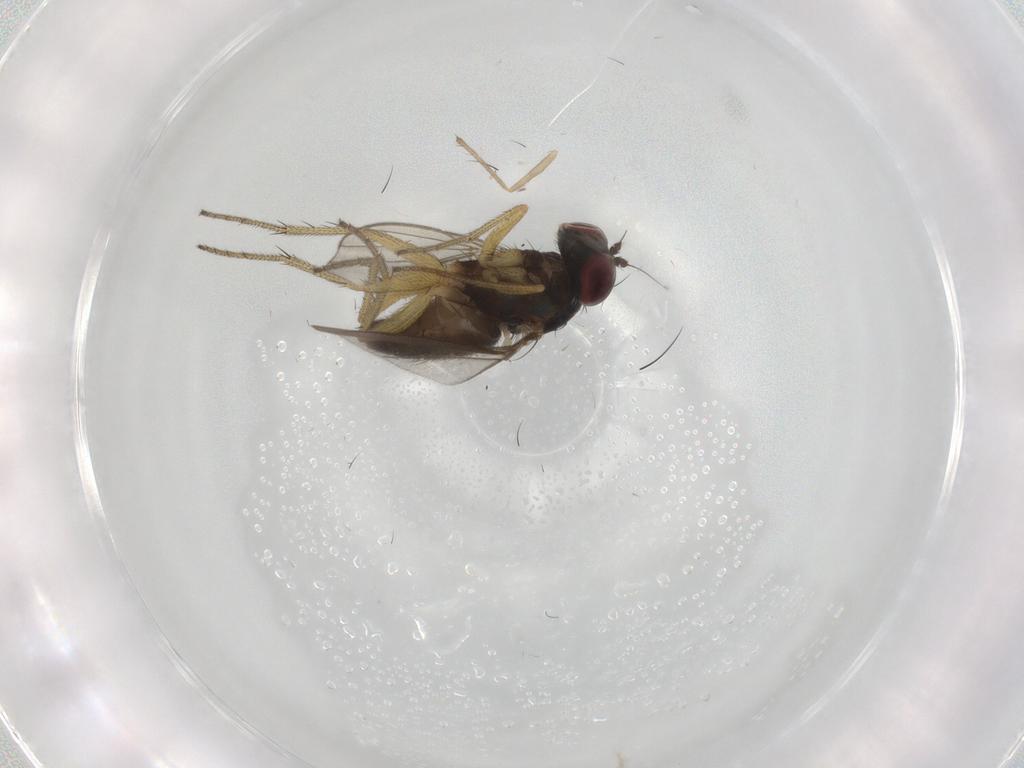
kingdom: Animalia
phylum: Arthropoda
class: Insecta
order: Diptera
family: Dolichopodidae
